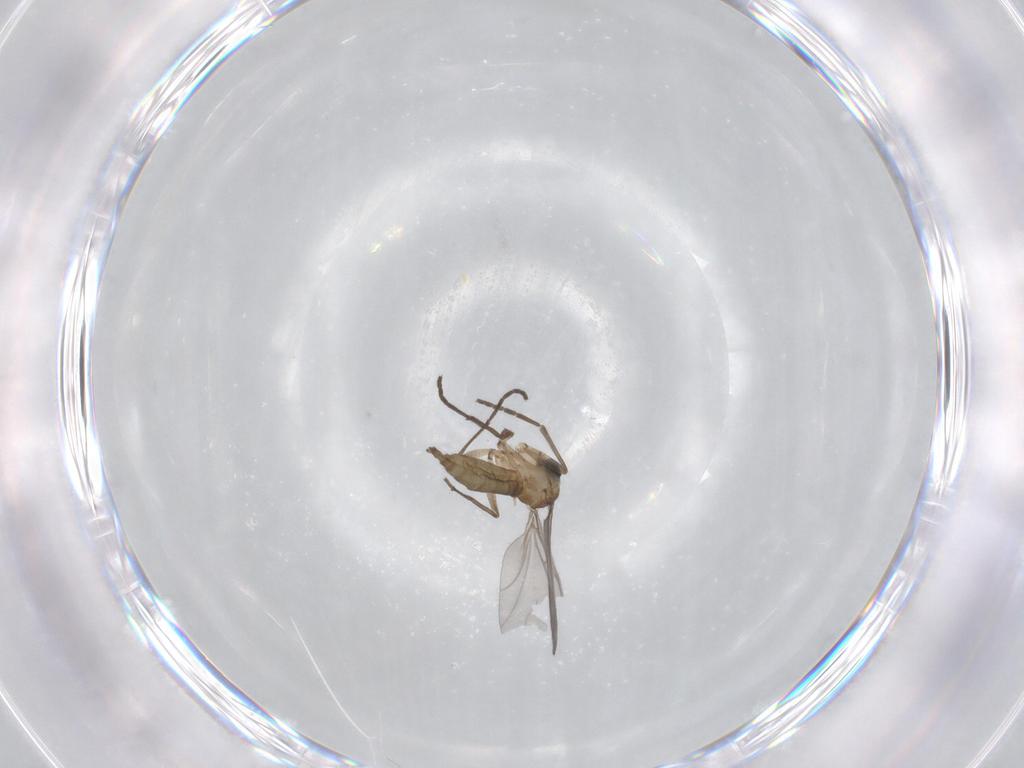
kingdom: Animalia
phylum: Arthropoda
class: Insecta
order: Diptera
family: Sciaridae
